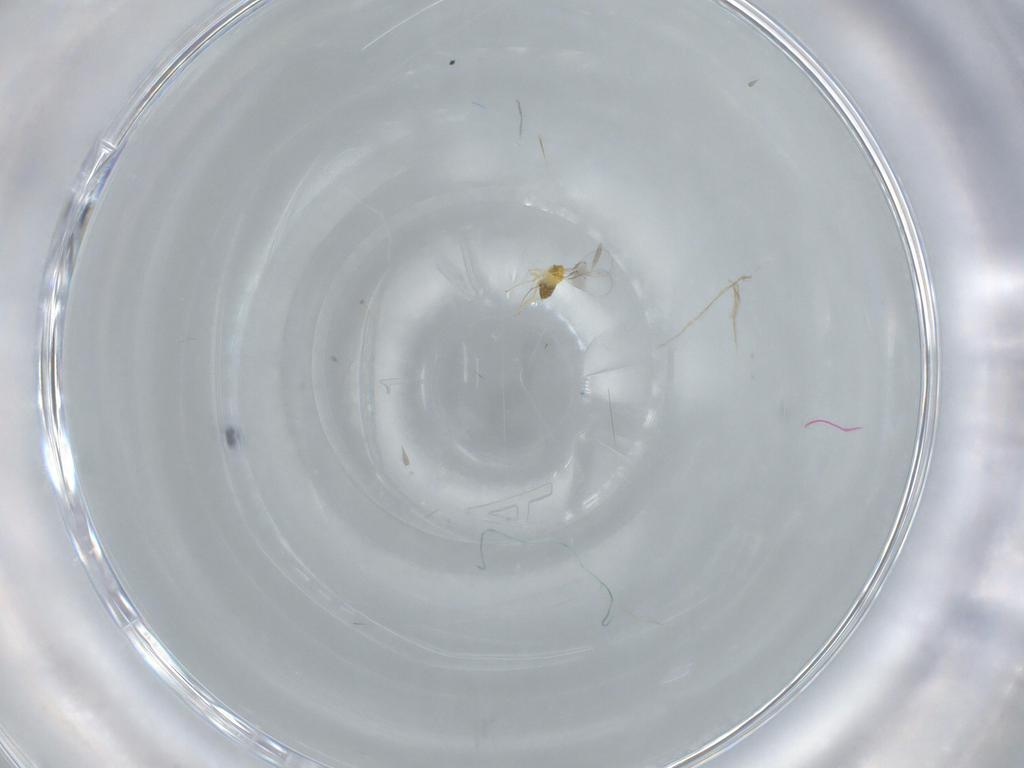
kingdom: Animalia
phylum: Arthropoda
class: Insecta
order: Hymenoptera
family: Trichogrammatidae
